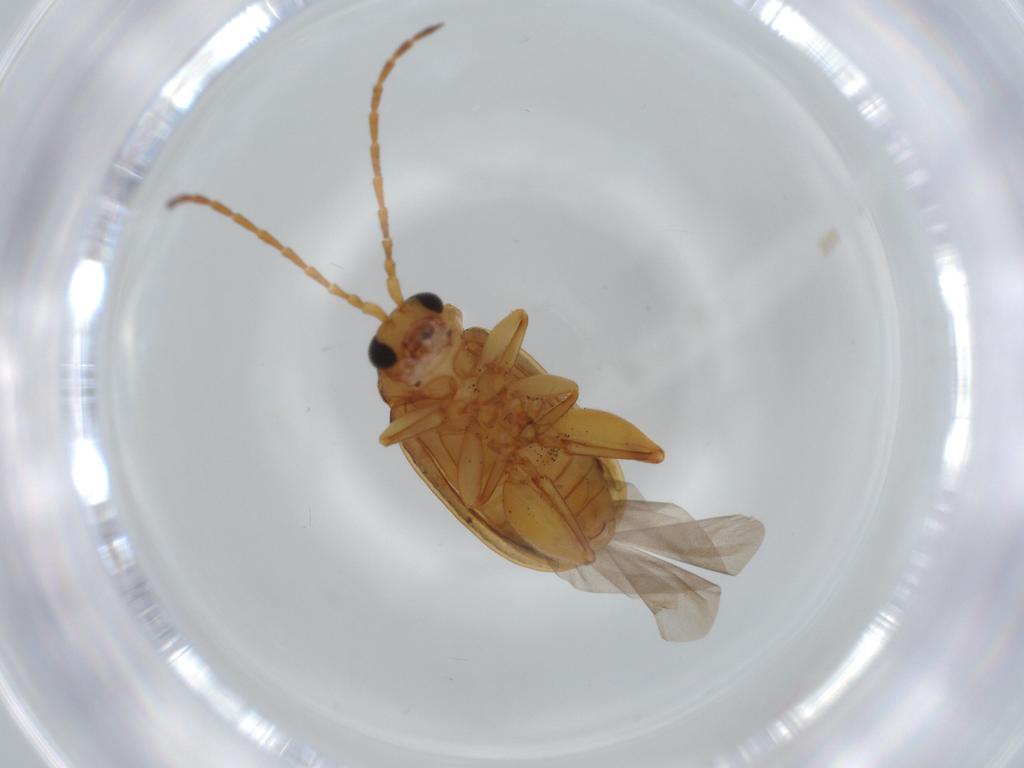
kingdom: Animalia
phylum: Arthropoda
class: Insecta
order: Coleoptera
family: Chrysomelidae
